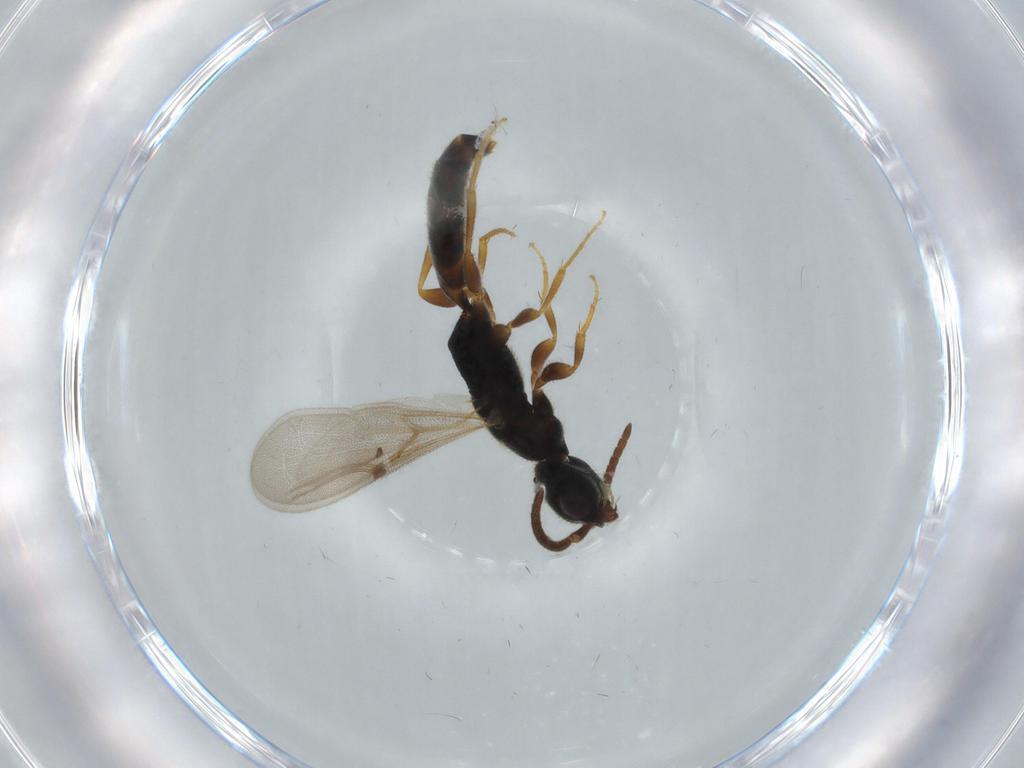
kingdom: Animalia
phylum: Arthropoda
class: Insecta
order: Hymenoptera
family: Bethylidae
